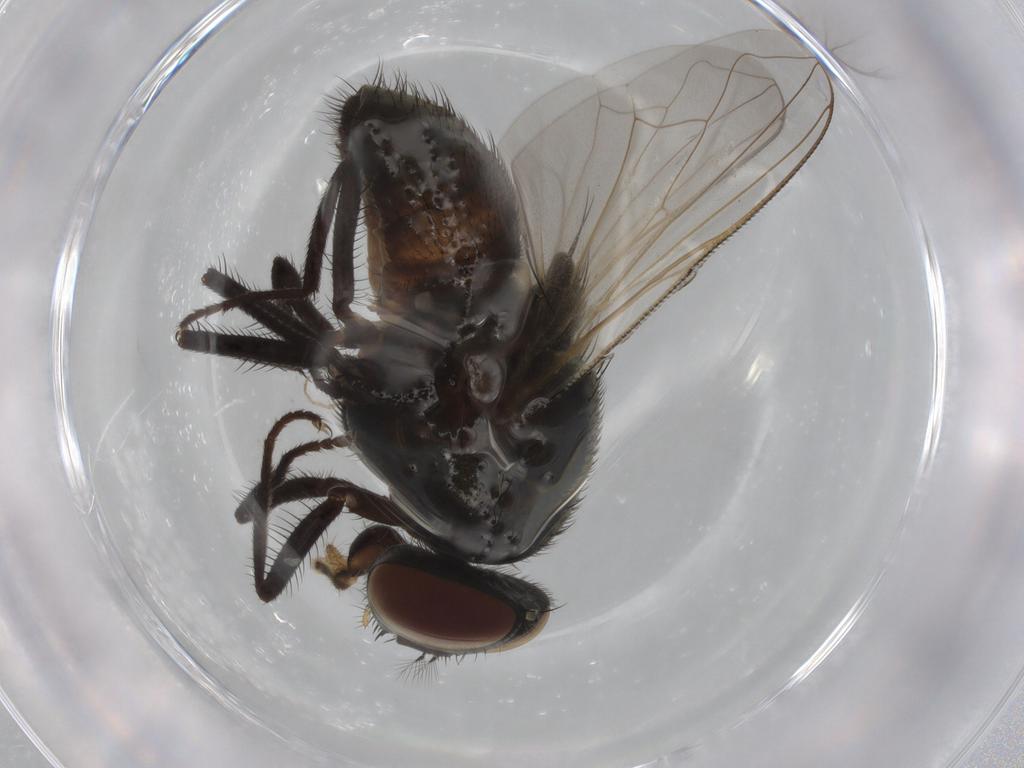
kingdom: Animalia
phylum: Arthropoda
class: Insecta
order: Diptera
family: Muscidae
